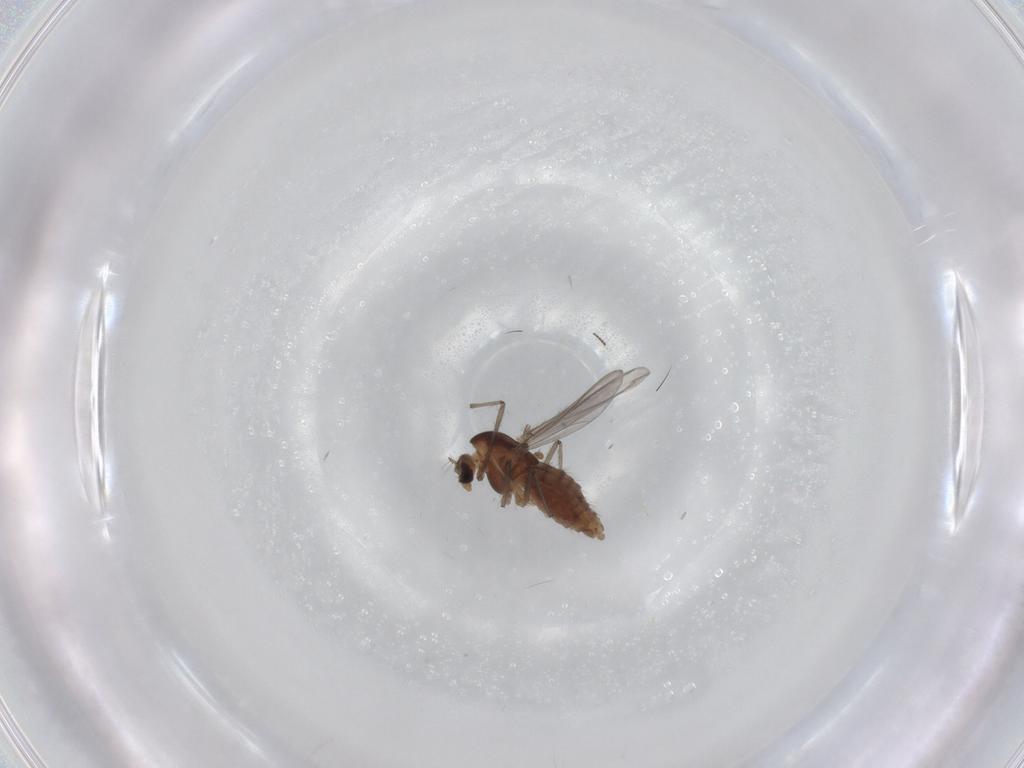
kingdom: Animalia
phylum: Arthropoda
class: Insecta
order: Diptera
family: Chironomidae
